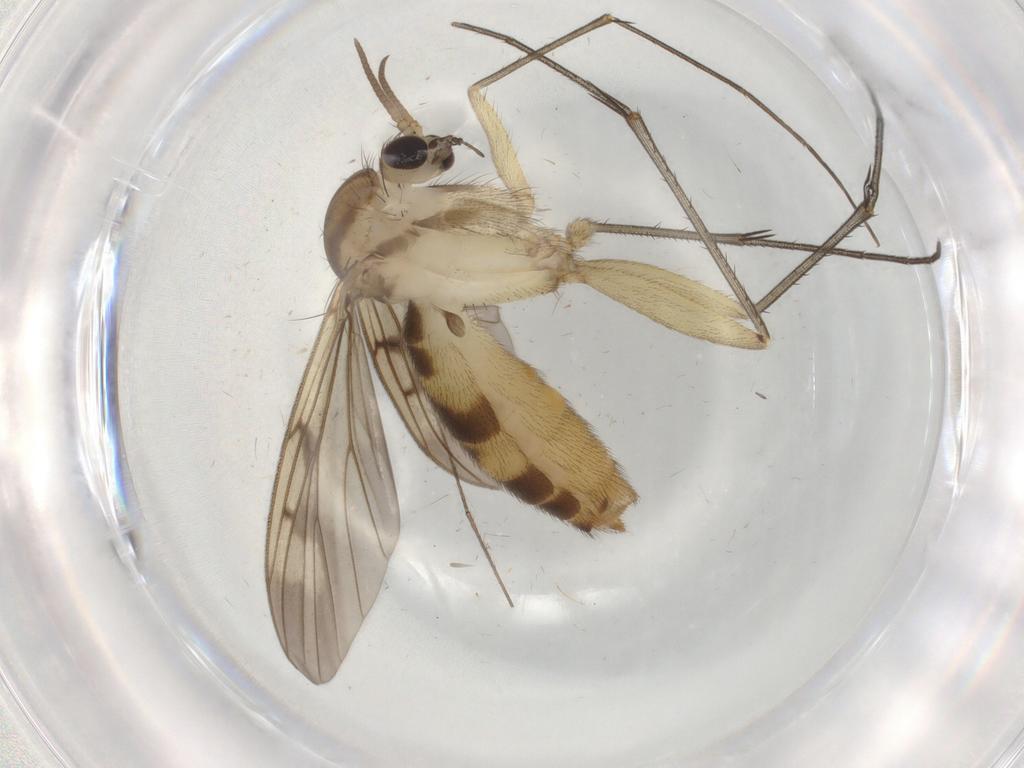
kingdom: Animalia
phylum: Arthropoda
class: Insecta
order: Diptera
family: Mycetophilidae
